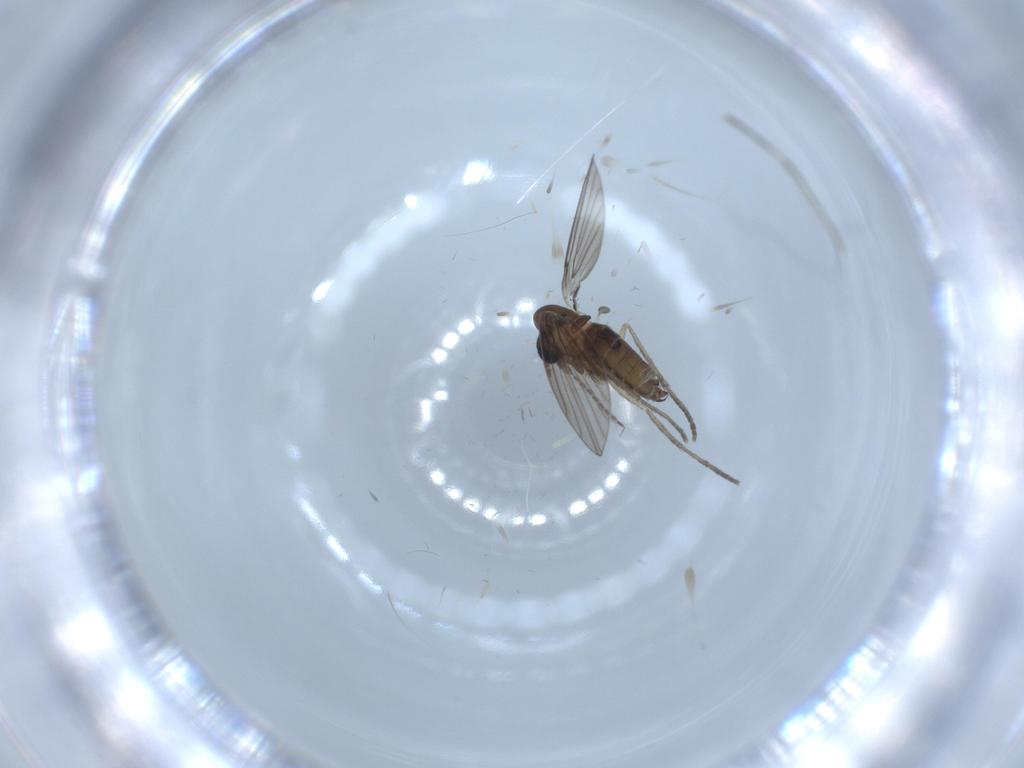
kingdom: Animalia
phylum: Arthropoda
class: Insecta
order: Diptera
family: Psychodidae
